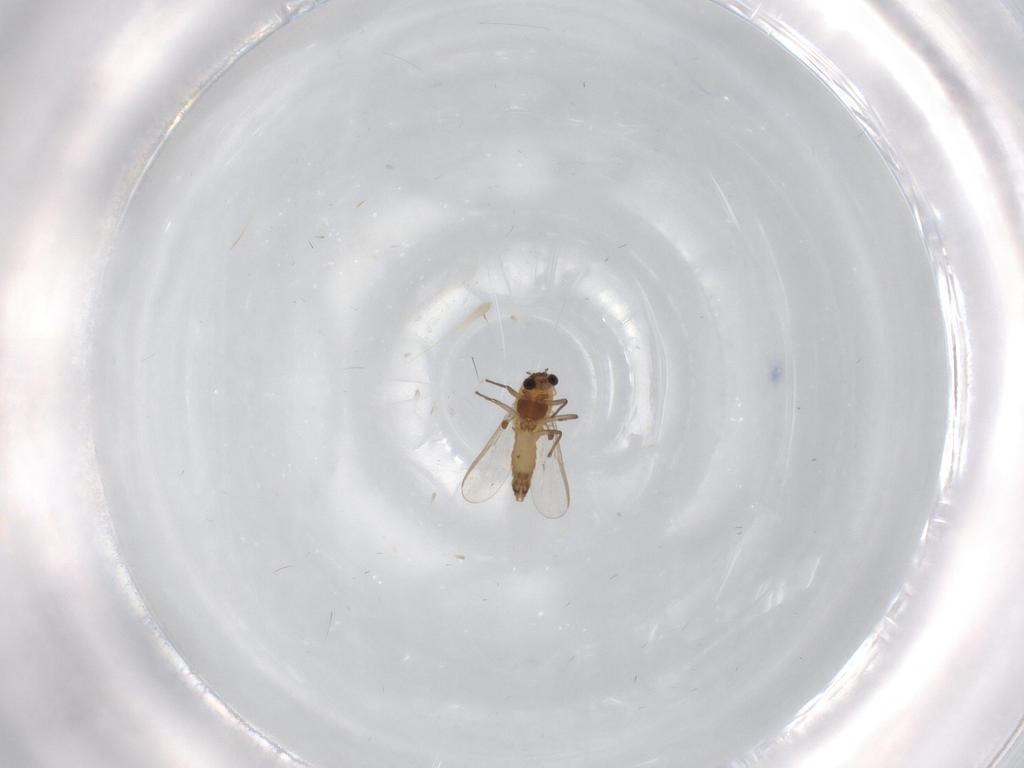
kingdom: Animalia
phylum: Arthropoda
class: Insecta
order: Diptera
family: Chironomidae
